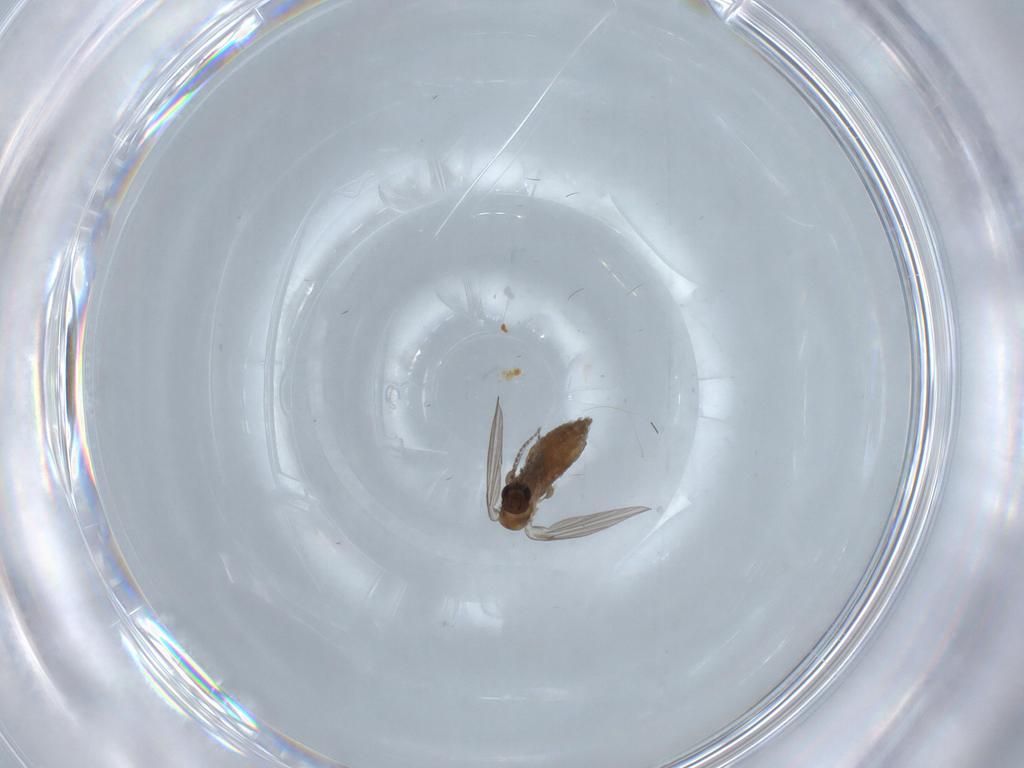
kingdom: Animalia
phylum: Arthropoda
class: Insecta
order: Diptera
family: Psychodidae
